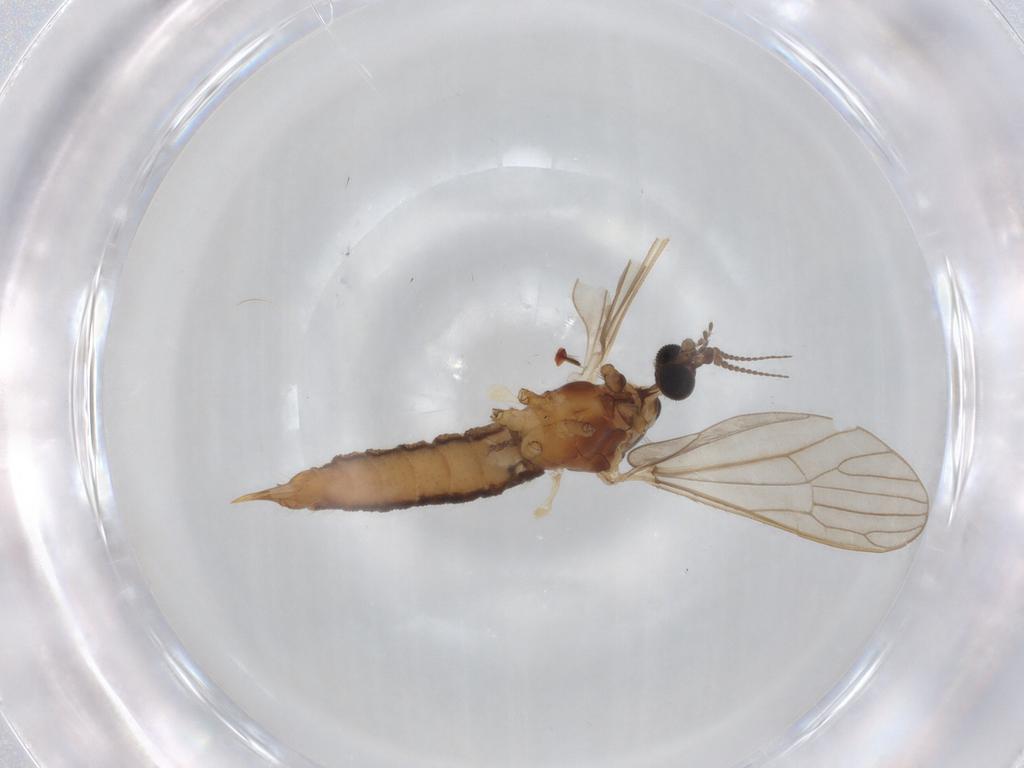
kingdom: Animalia
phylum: Arthropoda
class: Insecta
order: Diptera
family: Limoniidae
